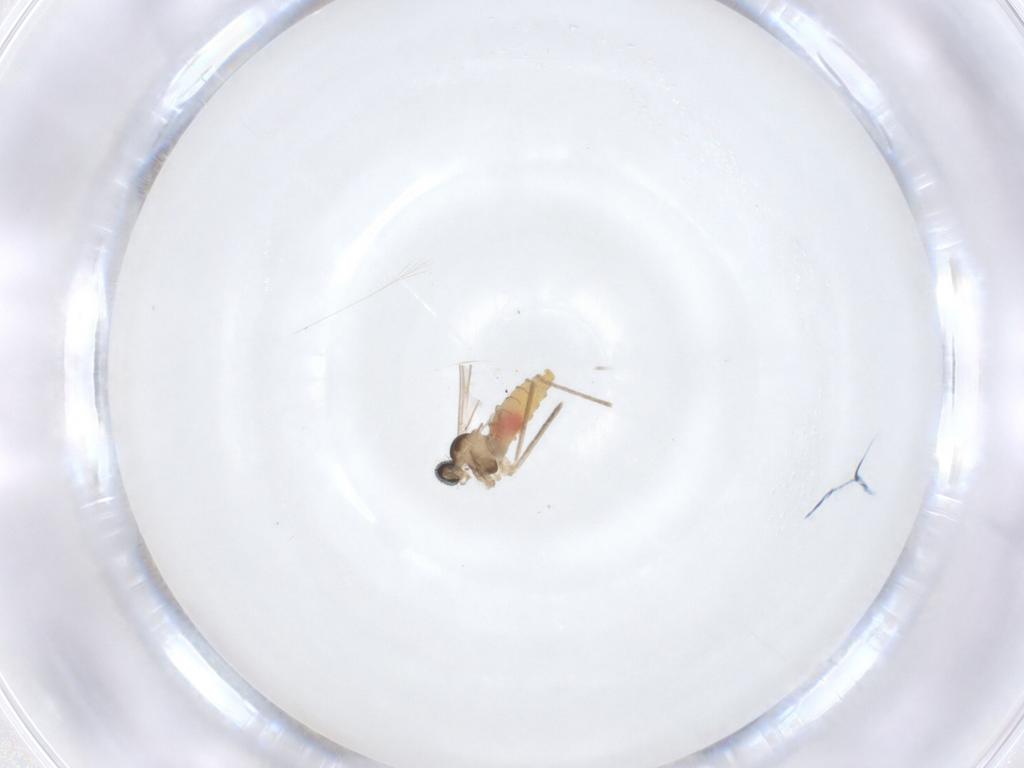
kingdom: Animalia
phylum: Arthropoda
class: Insecta
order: Diptera
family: Cecidomyiidae
